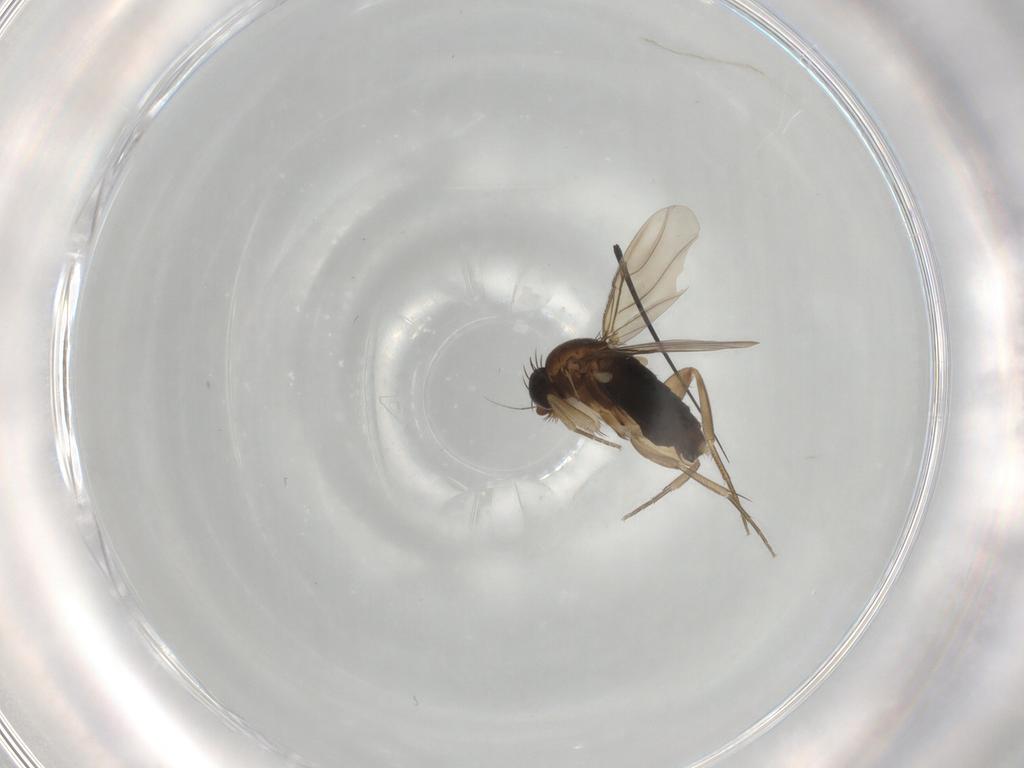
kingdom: Animalia
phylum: Arthropoda
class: Insecta
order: Diptera
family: Phoridae
